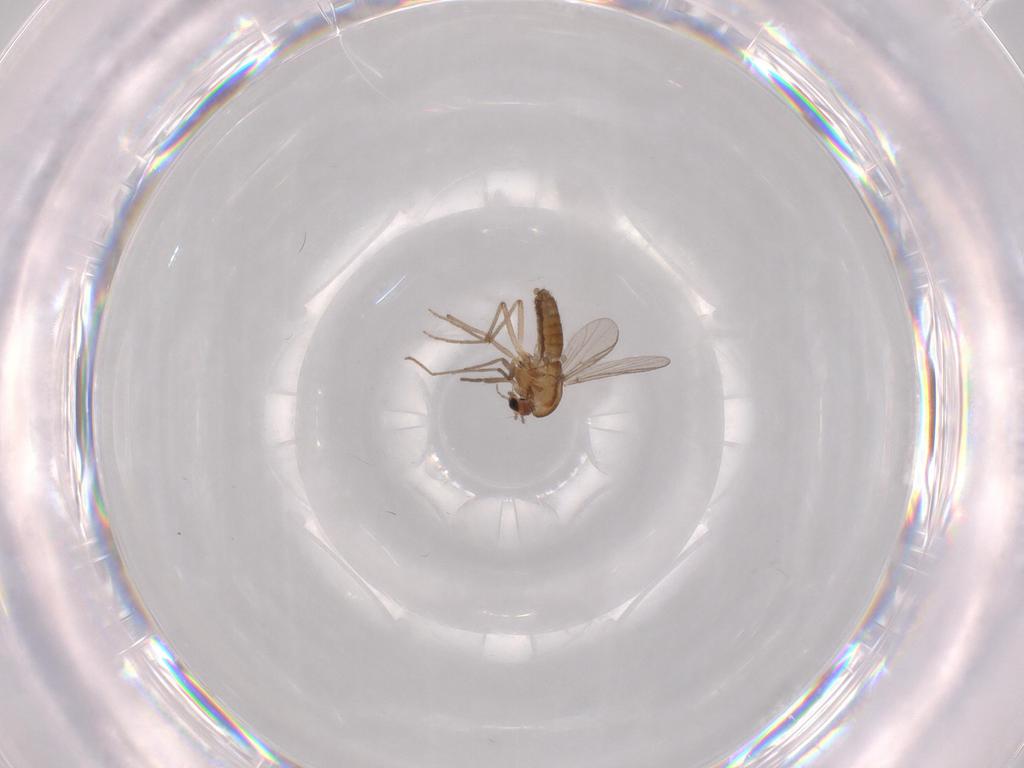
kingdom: Animalia
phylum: Arthropoda
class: Insecta
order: Diptera
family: Chironomidae
